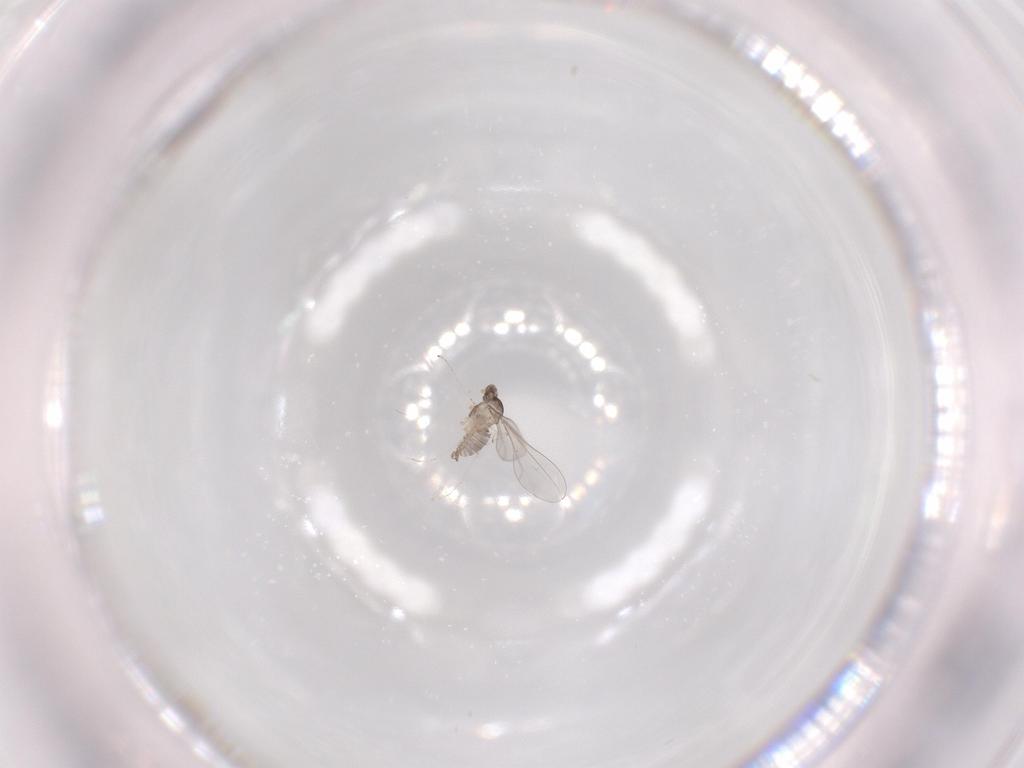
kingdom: Animalia
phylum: Arthropoda
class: Insecta
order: Diptera
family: Cecidomyiidae
